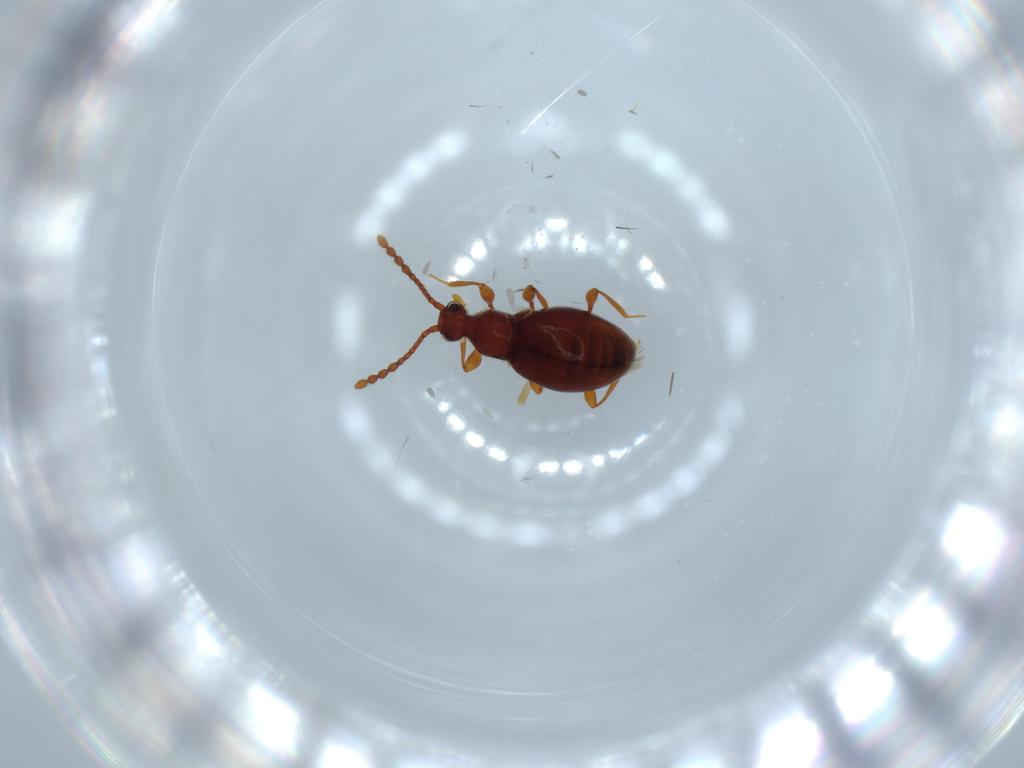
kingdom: Animalia
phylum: Arthropoda
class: Insecta
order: Coleoptera
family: Staphylinidae
